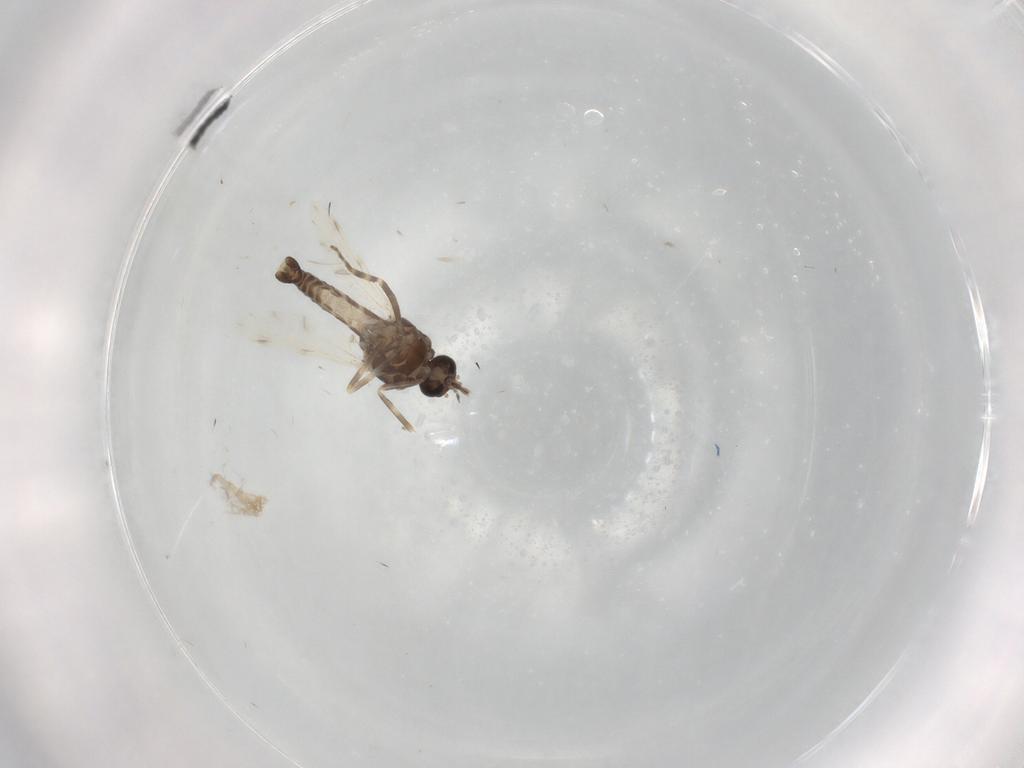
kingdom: Animalia
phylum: Arthropoda
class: Insecta
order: Diptera
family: Ceratopogonidae
